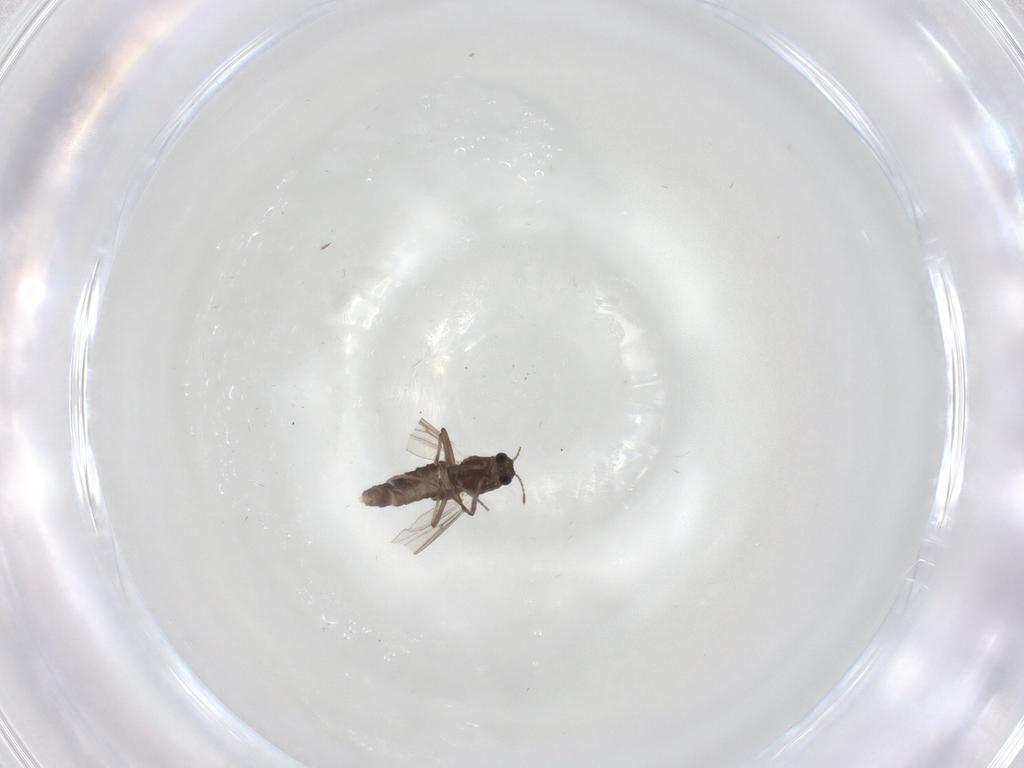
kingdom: Animalia
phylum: Arthropoda
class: Insecta
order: Diptera
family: Chironomidae
